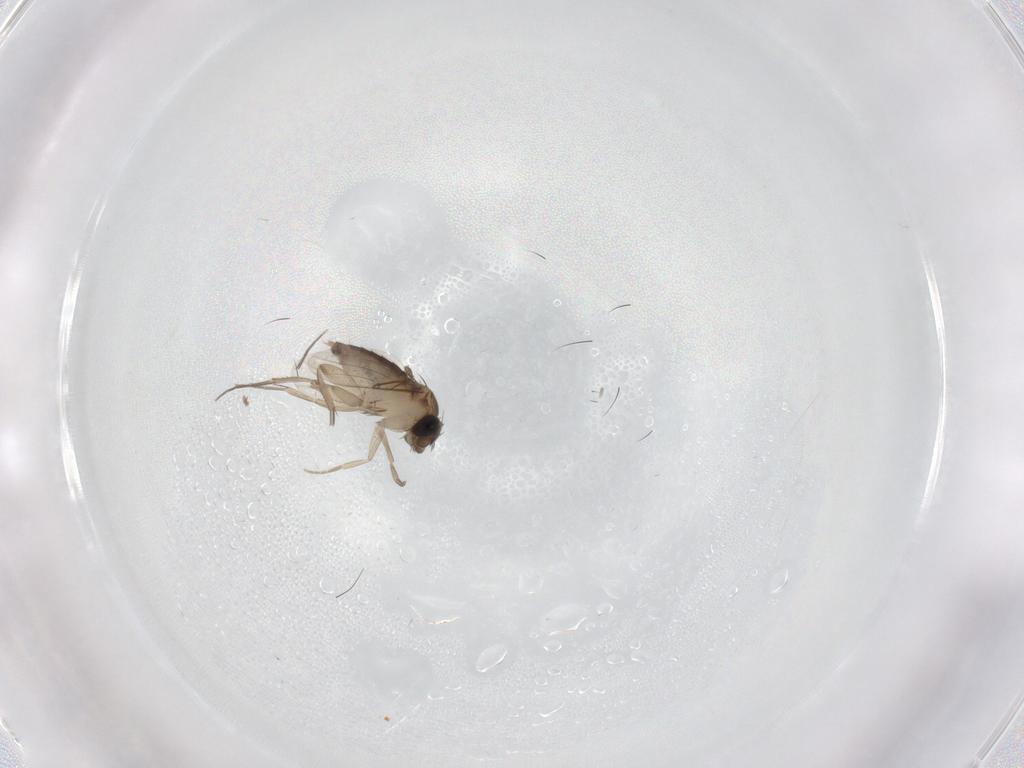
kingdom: Animalia
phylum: Arthropoda
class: Insecta
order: Diptera
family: Phoridae
